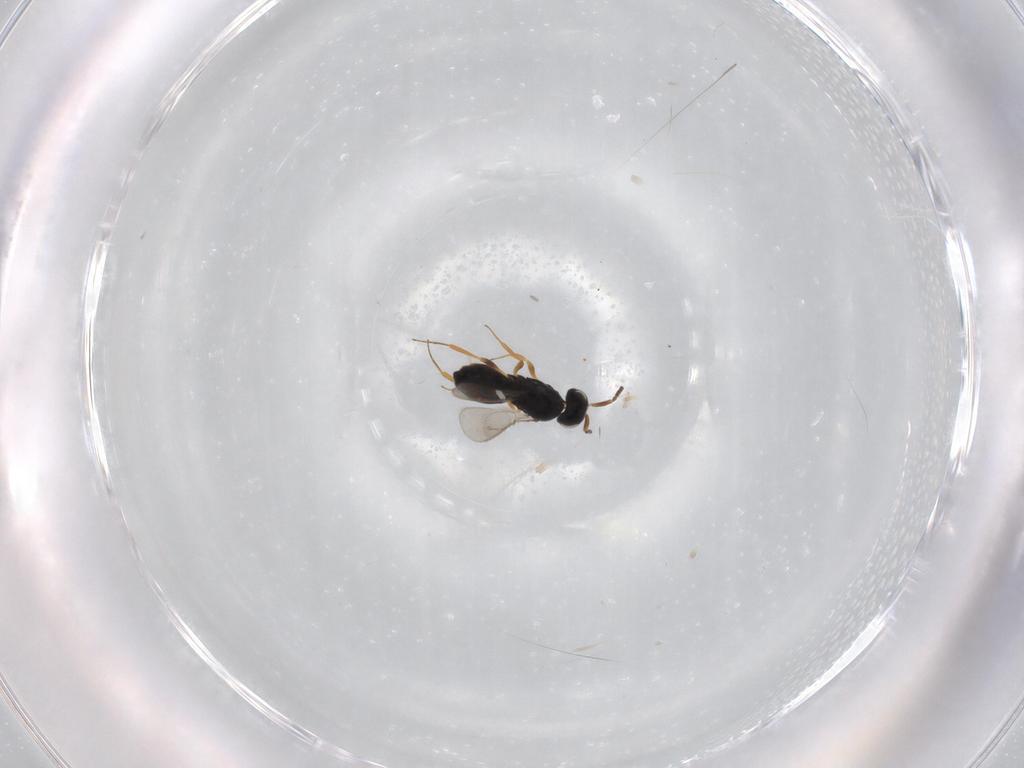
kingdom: Animalia
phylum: Arthropoda
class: Insecta
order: Hymenoptera
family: Scelionidae
